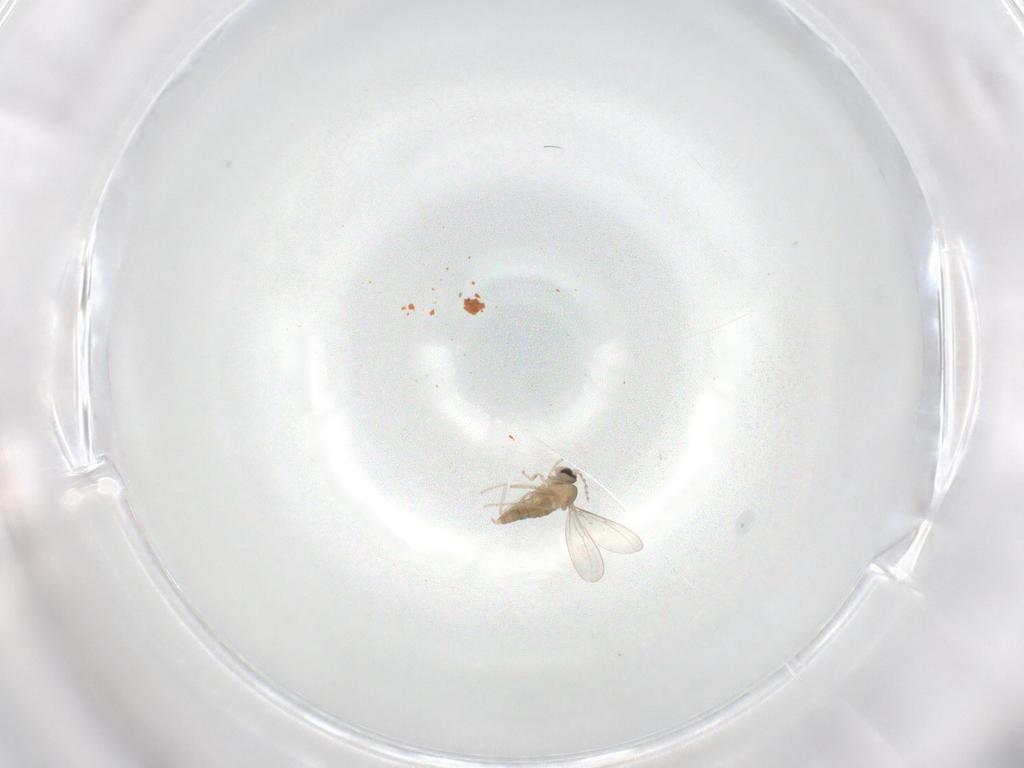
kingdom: Animalia
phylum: Arthropoda
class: Insecta
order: Diptera
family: Cecidomyiidae
